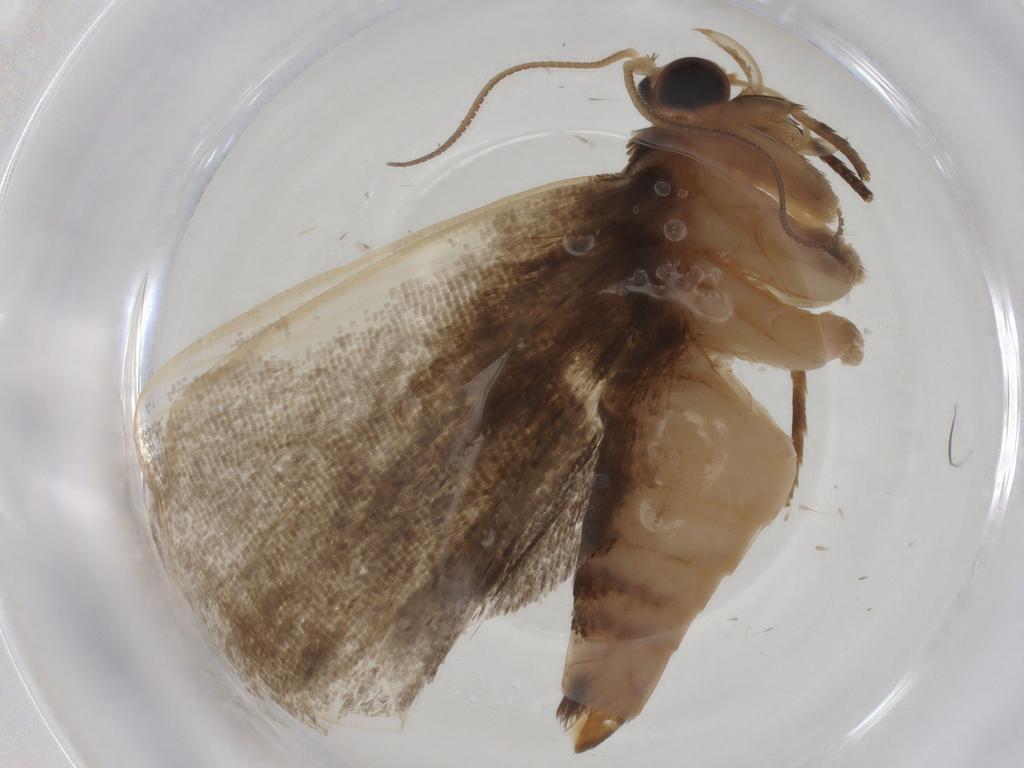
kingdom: Animalia
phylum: Arthropoda
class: Insecta
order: Lepidoptera
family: Immidae
